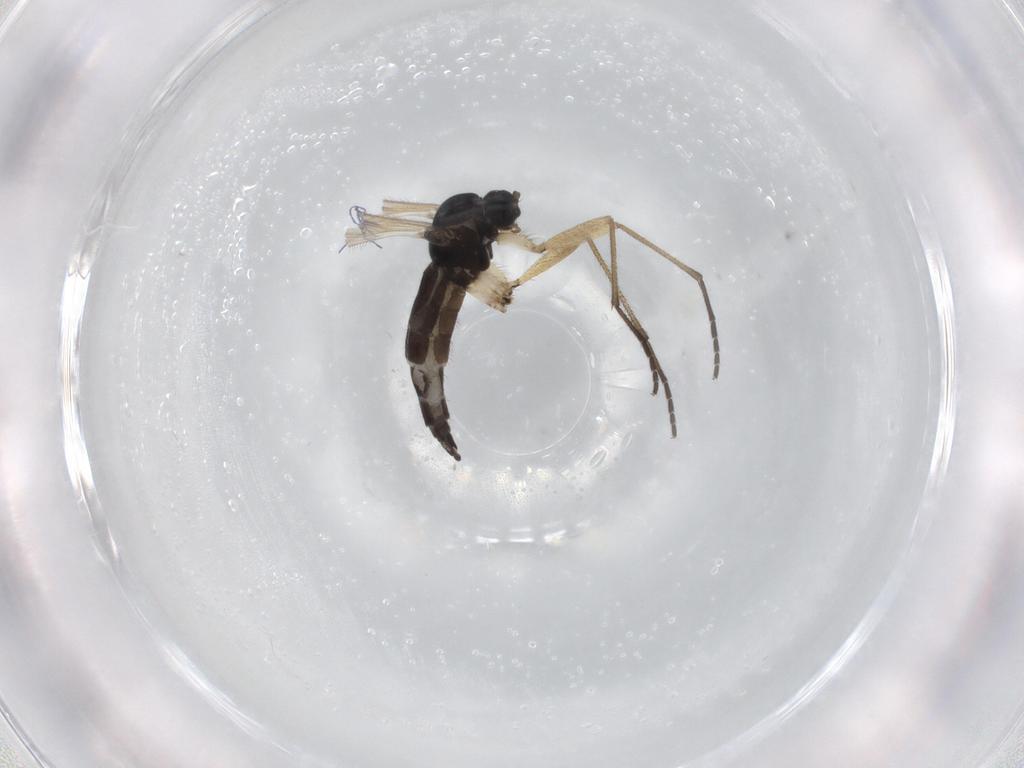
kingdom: Animalia
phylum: Arthropoda
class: Insecta
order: Diptera
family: Sciaridae
